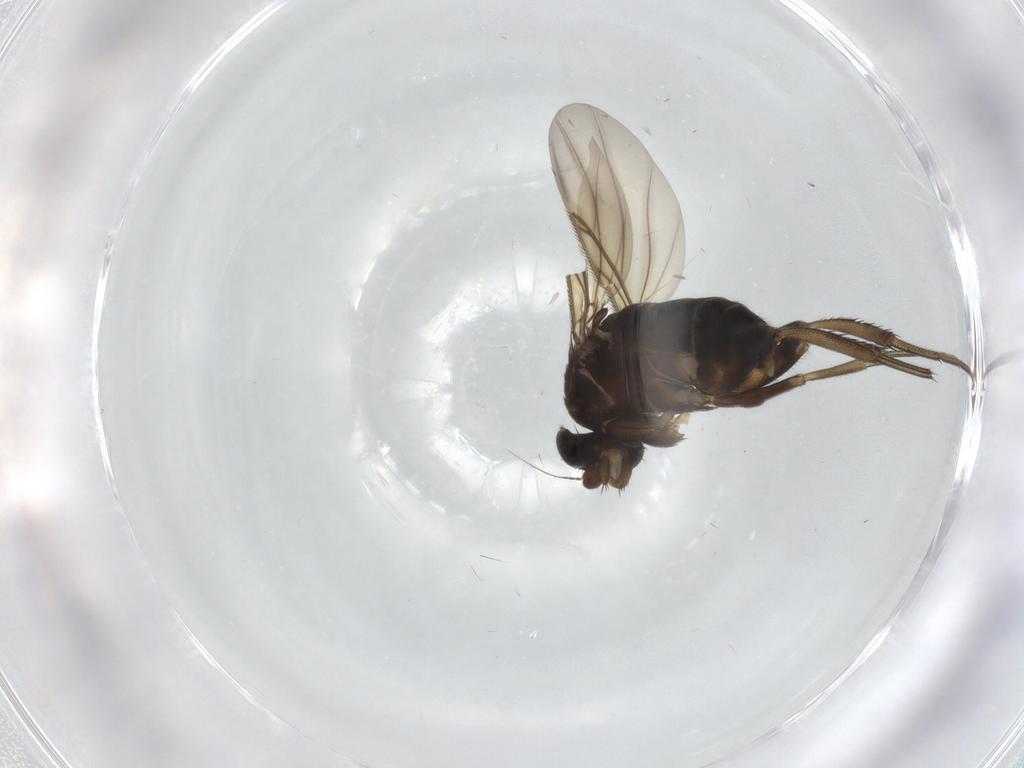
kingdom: Animalia
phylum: Arthropoda
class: Insecta
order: Diptera
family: Phoridae
